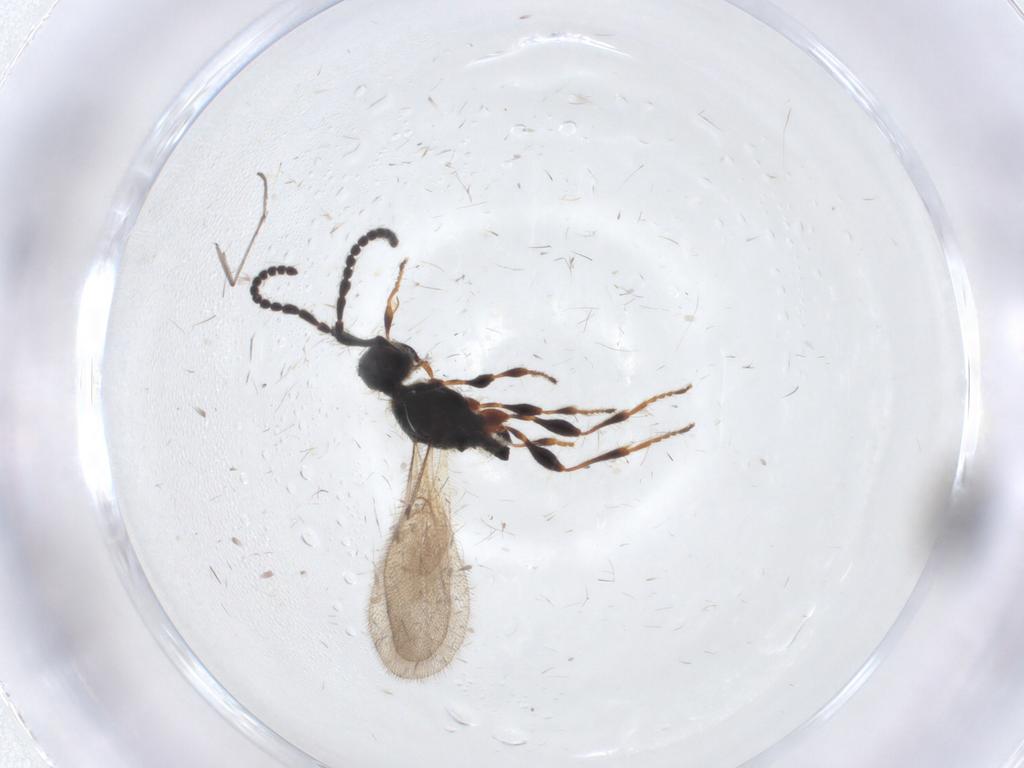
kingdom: Animalia
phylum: Arthropoda
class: Insecta
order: Hymenoptera
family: Diapriidae
